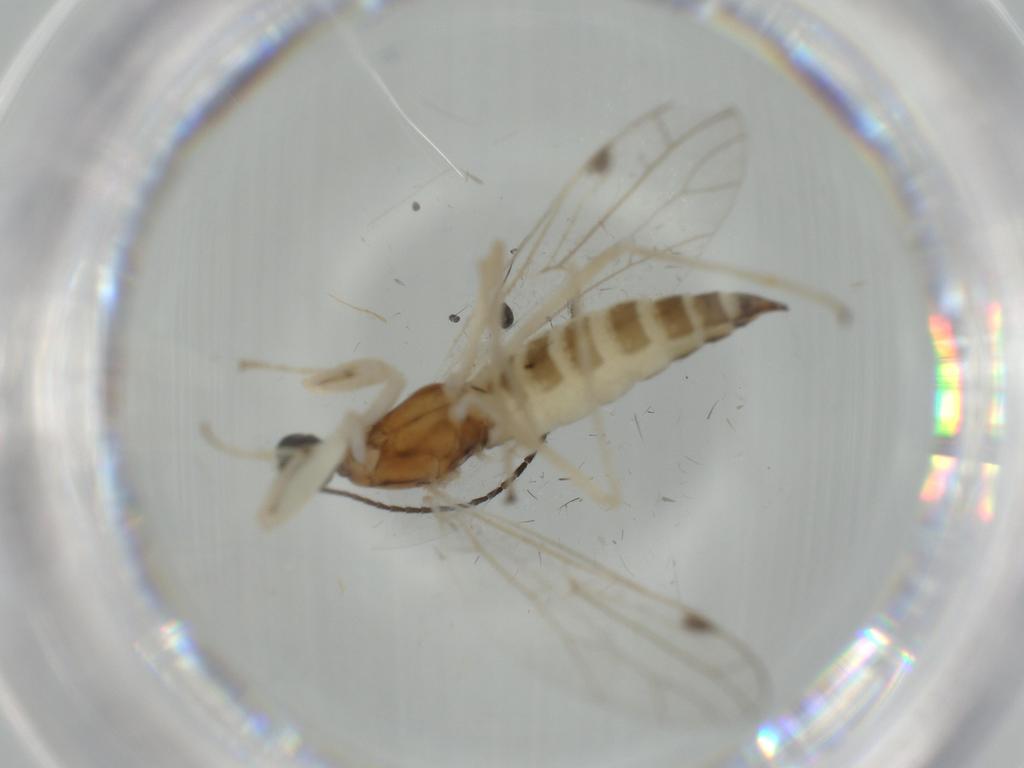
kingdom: Animalia
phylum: Arthropoda
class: Insecta
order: Diptera
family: Empididae
